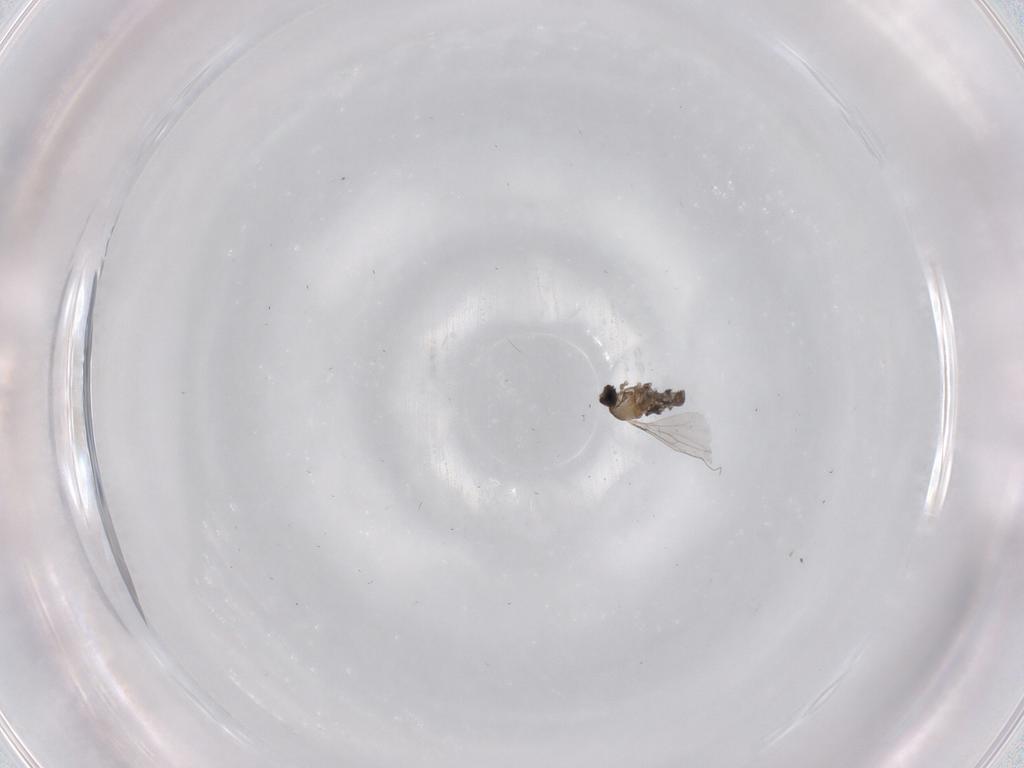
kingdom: Animalia
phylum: Arthropoda
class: Insecta
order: Diptera
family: Cecidomyiidae
